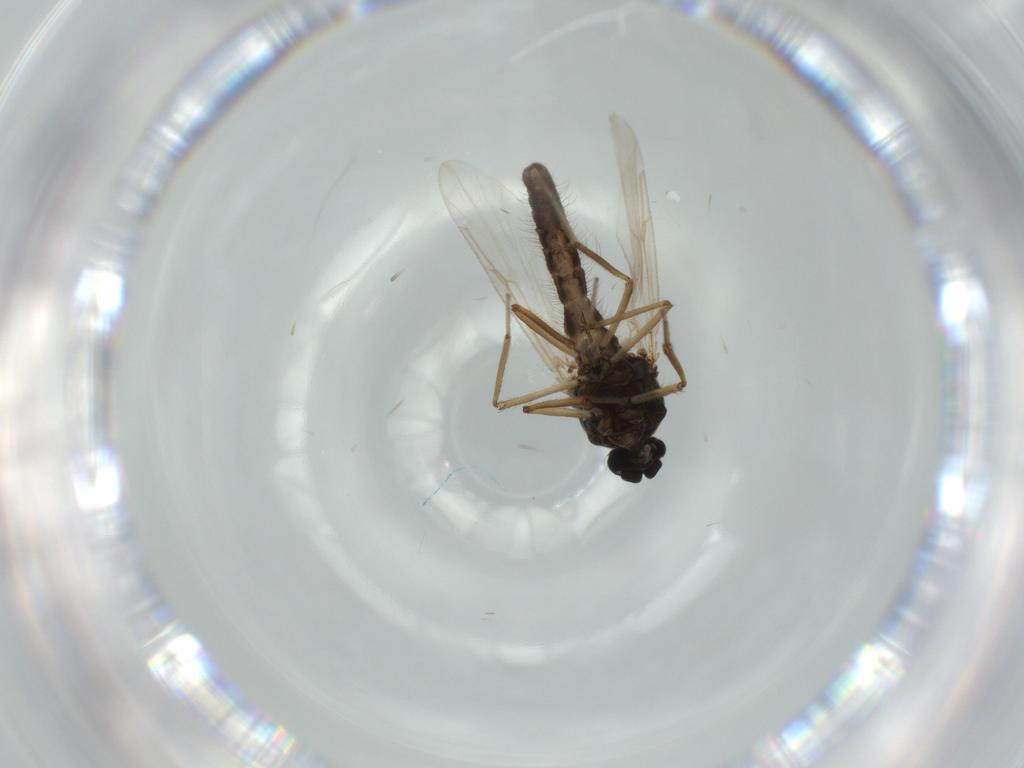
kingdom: Animalia
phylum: Arthropoda
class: Insecta
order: Diptera
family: Ceratopogonidae
